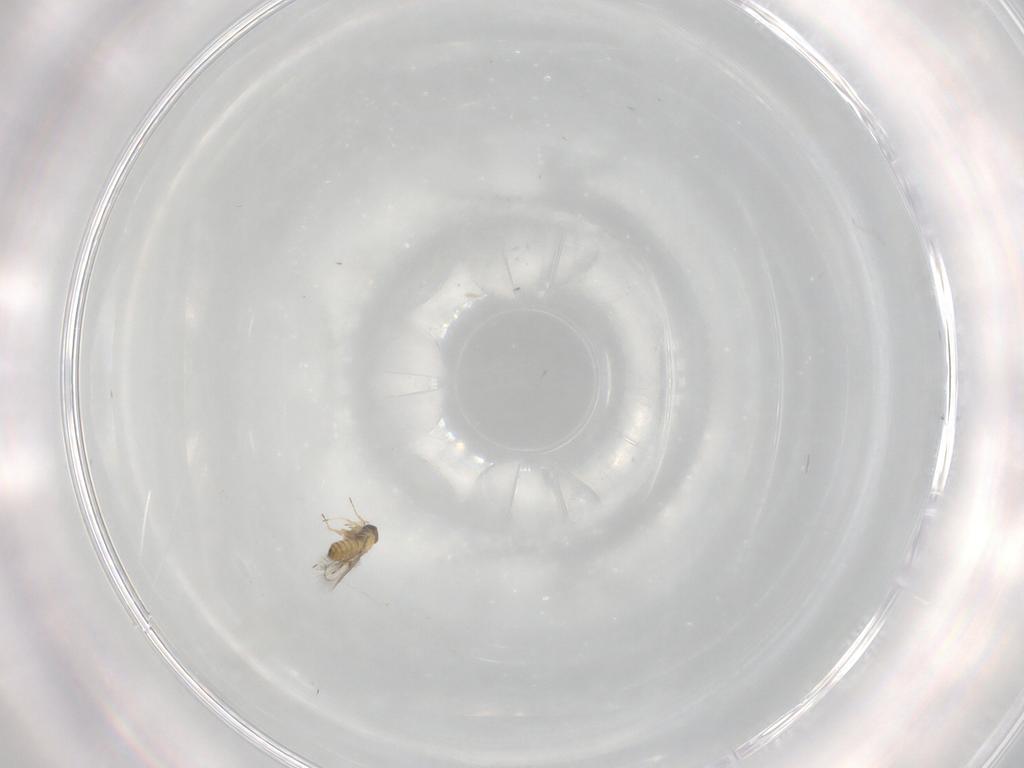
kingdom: Animalia
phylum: Arthropoda
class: Insecta
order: Hymenoptera
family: Trichogrammatidae
